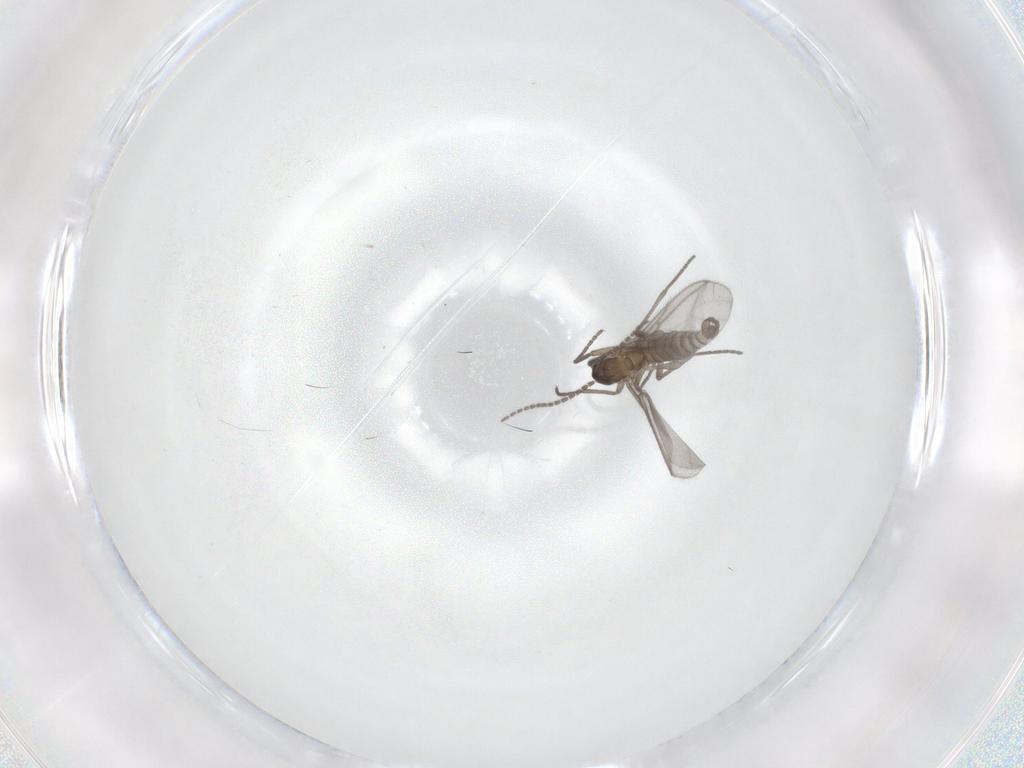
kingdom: Animalia
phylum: Arthropoda
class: Insecta
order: Diptera
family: Sciaridae
